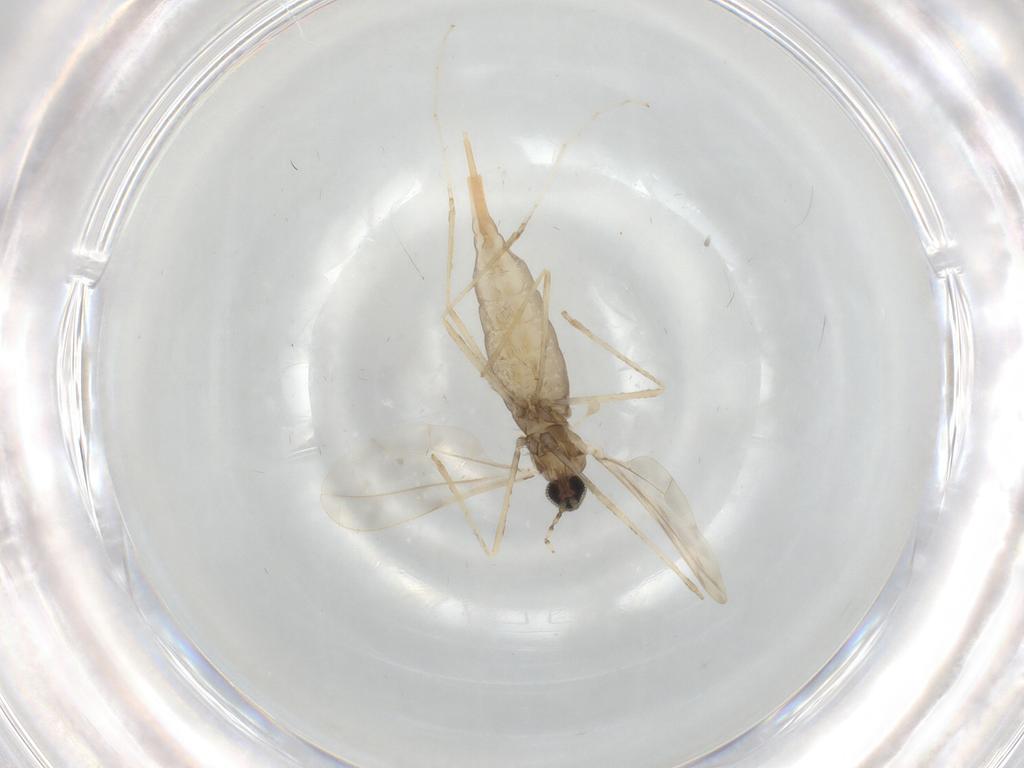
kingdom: Animalia
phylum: Arthropoda
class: Insecta
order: Diptera
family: Cecidomyiidae
